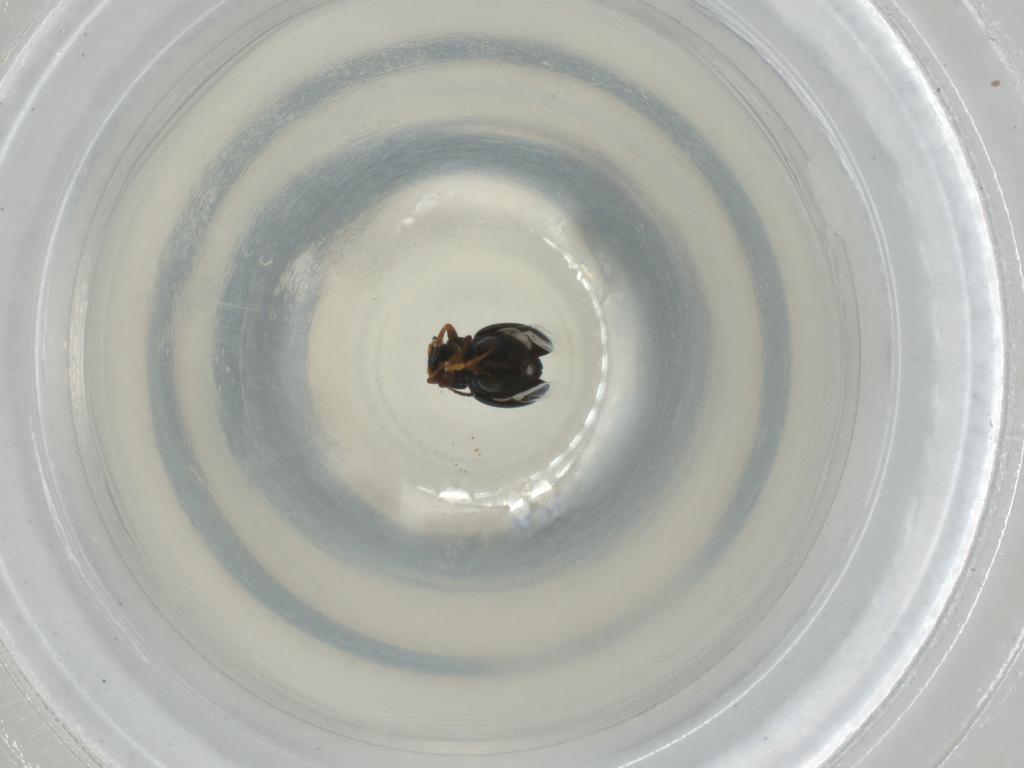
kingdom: Animalia
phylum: Arthropoda
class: Insecta
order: Coleoptera
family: Chrysomelidae
